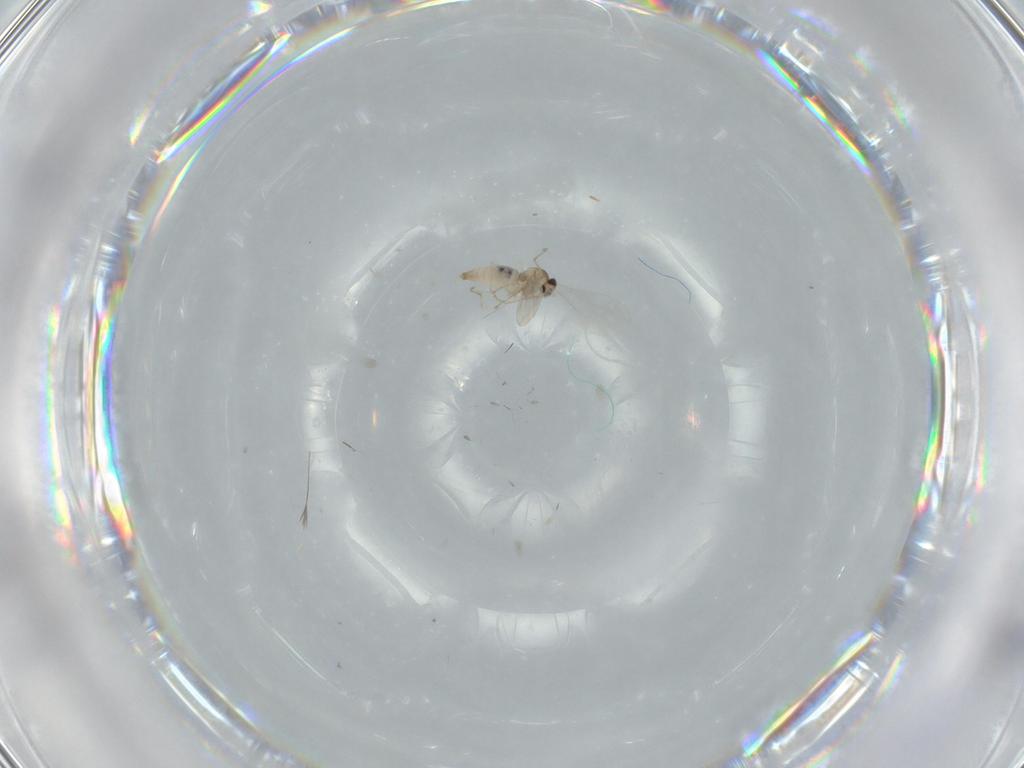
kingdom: Animalia
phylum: Arthropoda
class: Insecta
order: Diptera
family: Cecidomyiidae
